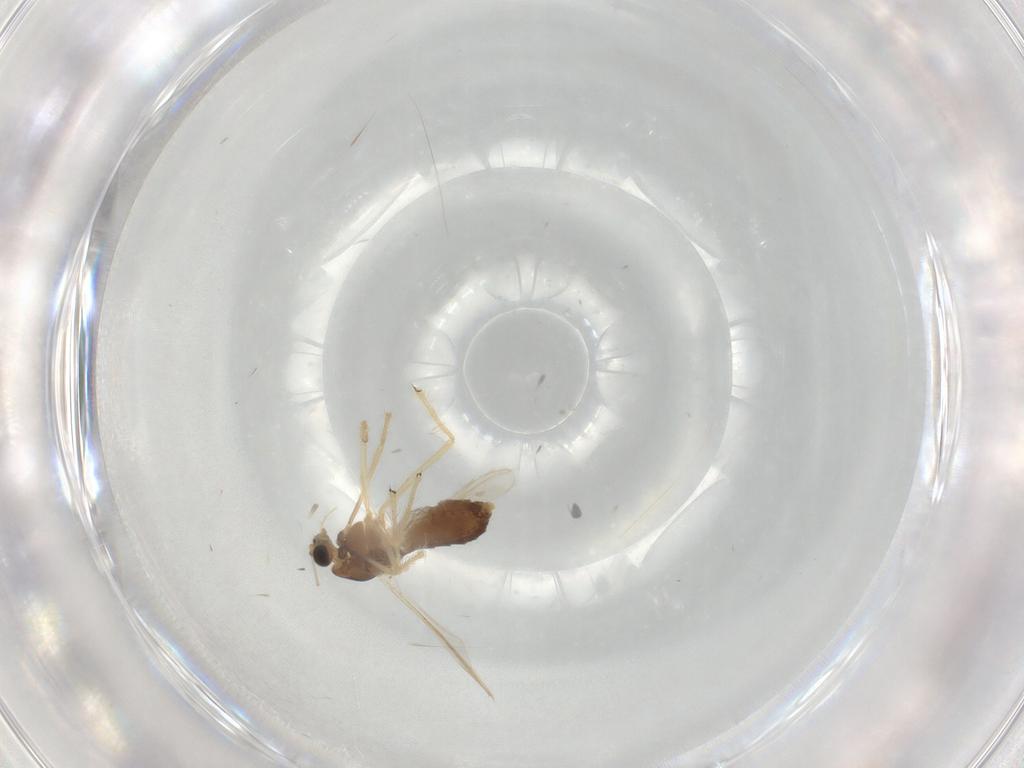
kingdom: Animalia
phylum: Arthropoda
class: Insecta
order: Diptera
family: Chironomidae
